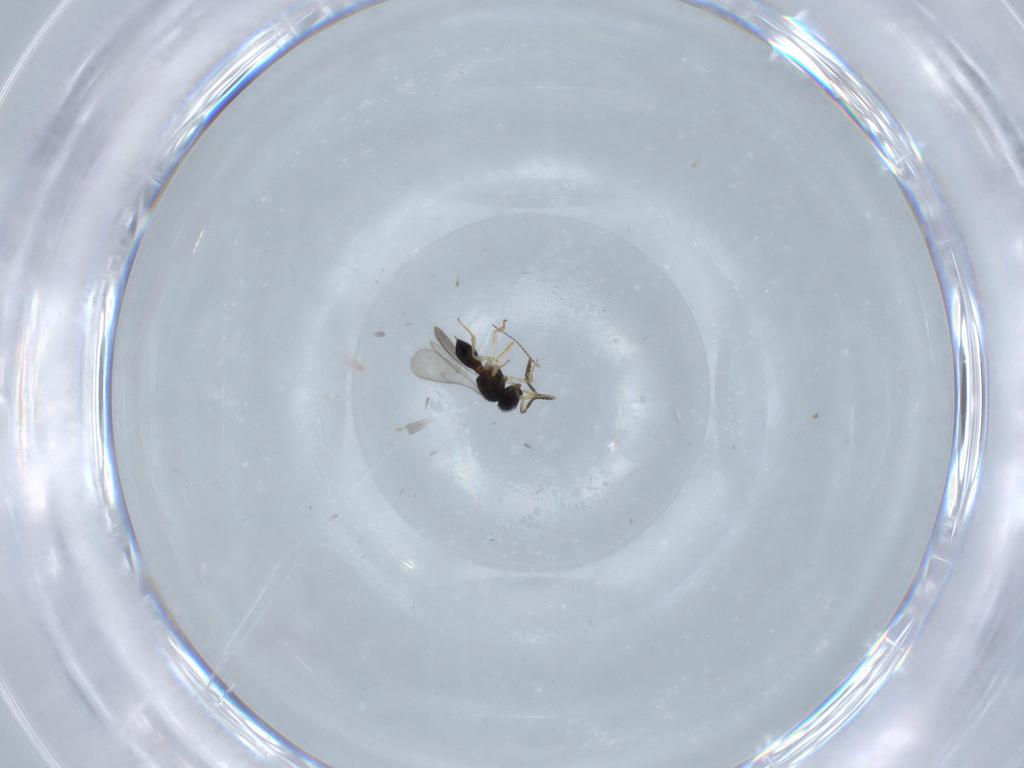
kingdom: Animalia
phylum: Arthropoda
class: Insecta
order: Hymenoptera
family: Scelionidae
